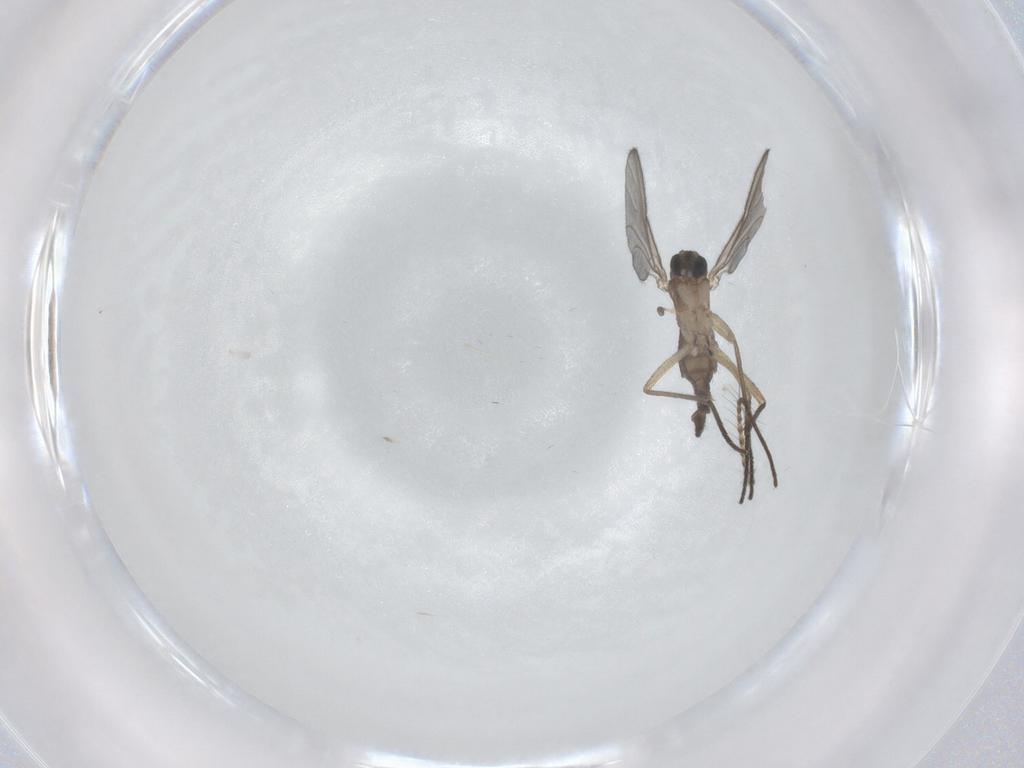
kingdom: Animalia
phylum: Arthropoda
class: Insecta
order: Diptera
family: Sciaridae
